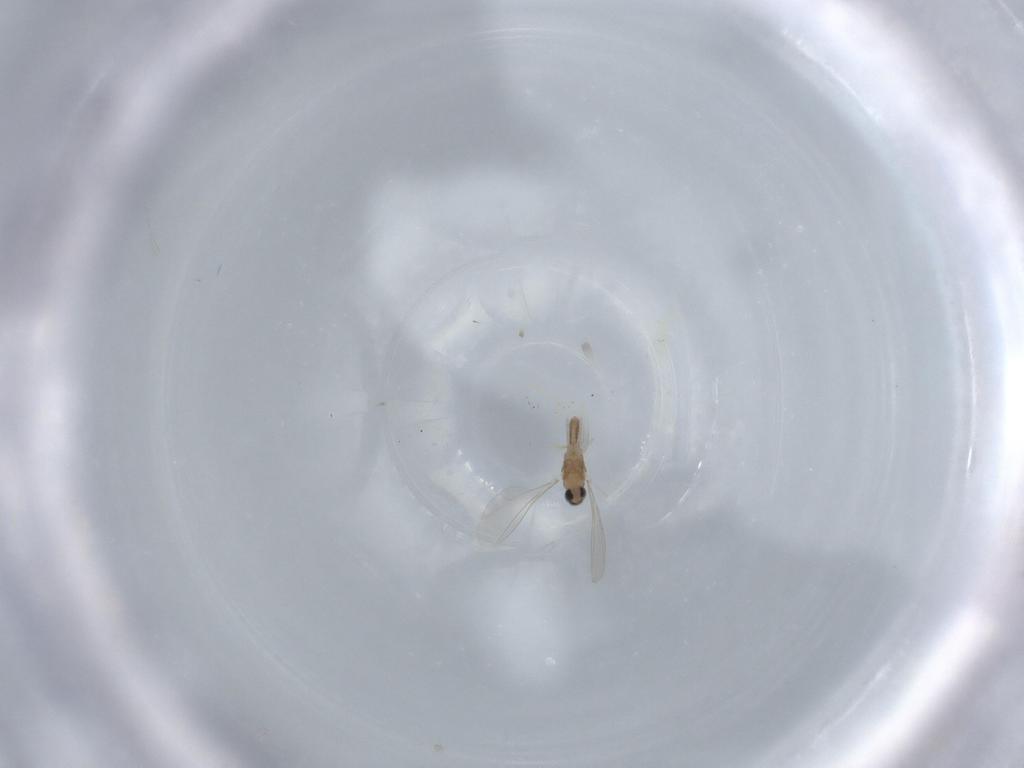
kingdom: Animalia
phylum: Arthropoda
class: Insecta
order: Diptera
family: Cecidomyiidae
